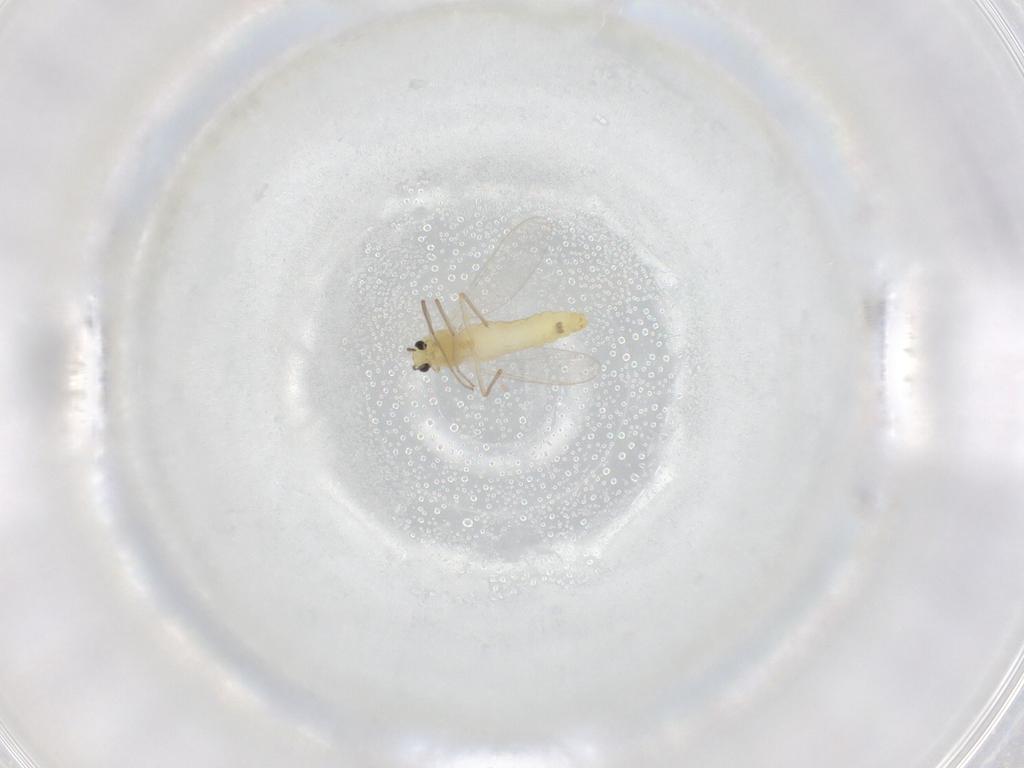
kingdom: Animalia
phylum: Arthropoda
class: Insecta
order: Diptera
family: Chironomidae
